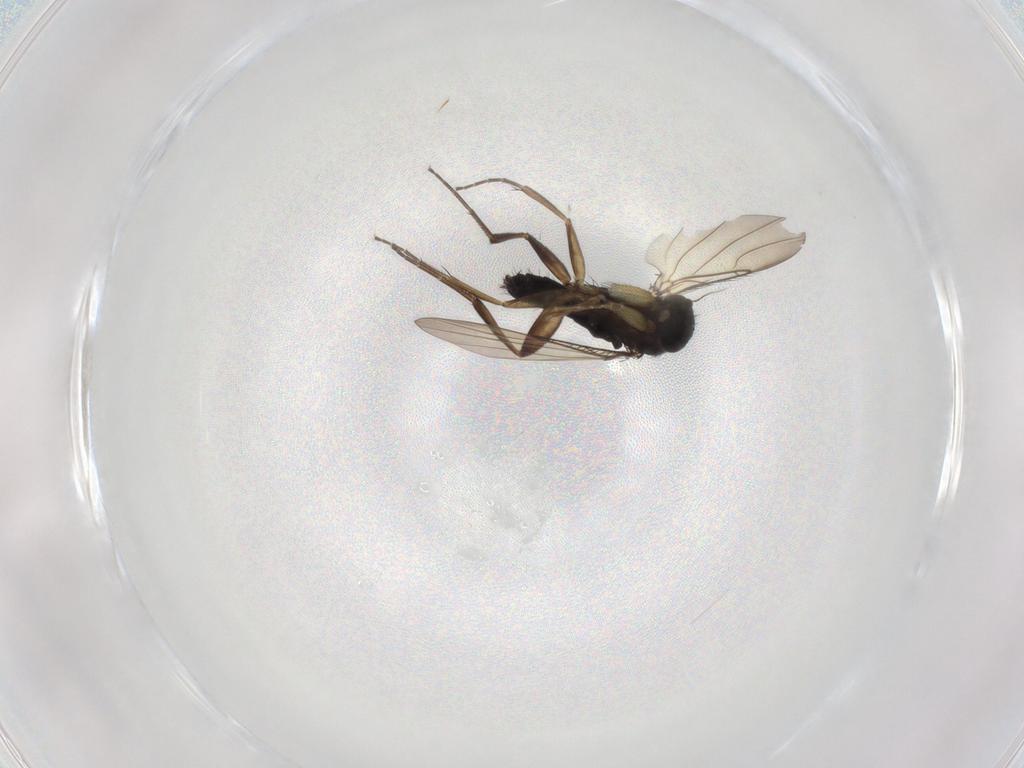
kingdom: Animalia
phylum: Arthropoda
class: Insecta
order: Diptera
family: Phoridae
